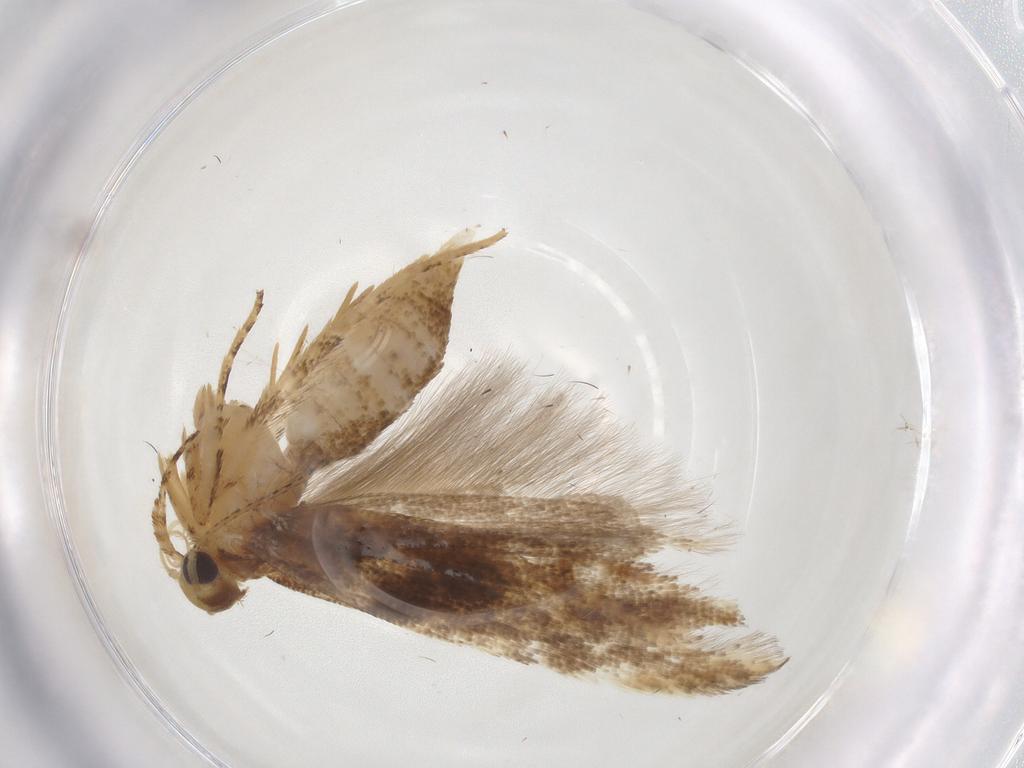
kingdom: Animalia
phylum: Arthropoda
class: Insecta
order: Lepidoptera
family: Gelechiidae
